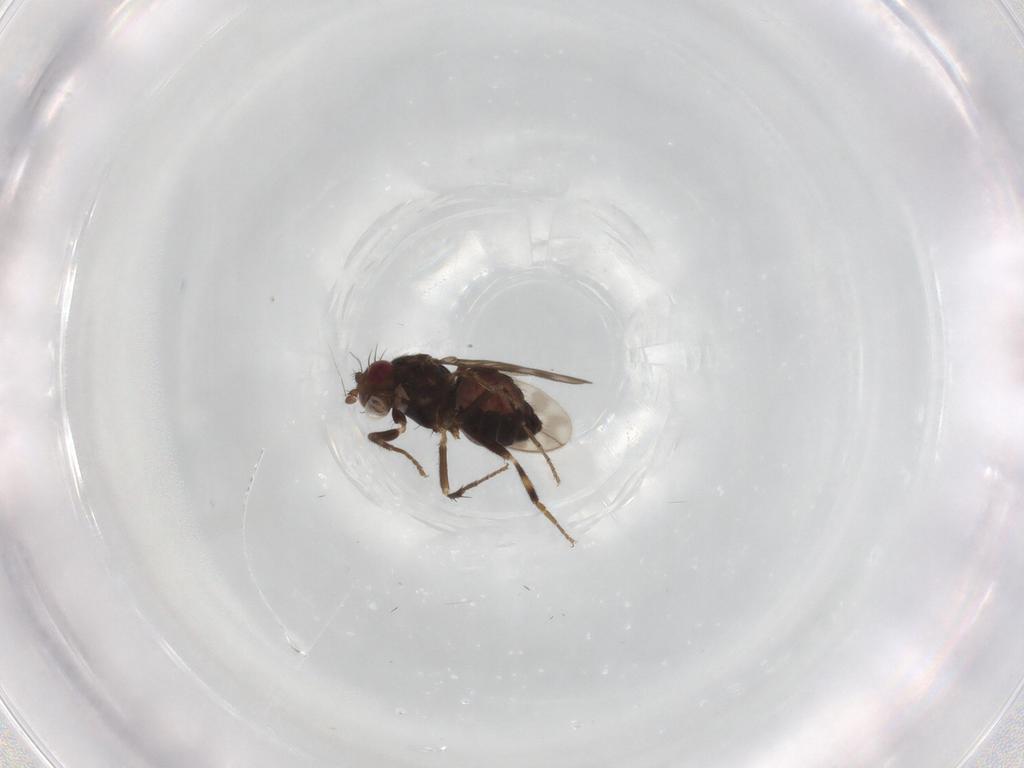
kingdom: Animalia
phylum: Arthropoda
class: Insecta
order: Diptera
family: Sphaeroceridae
